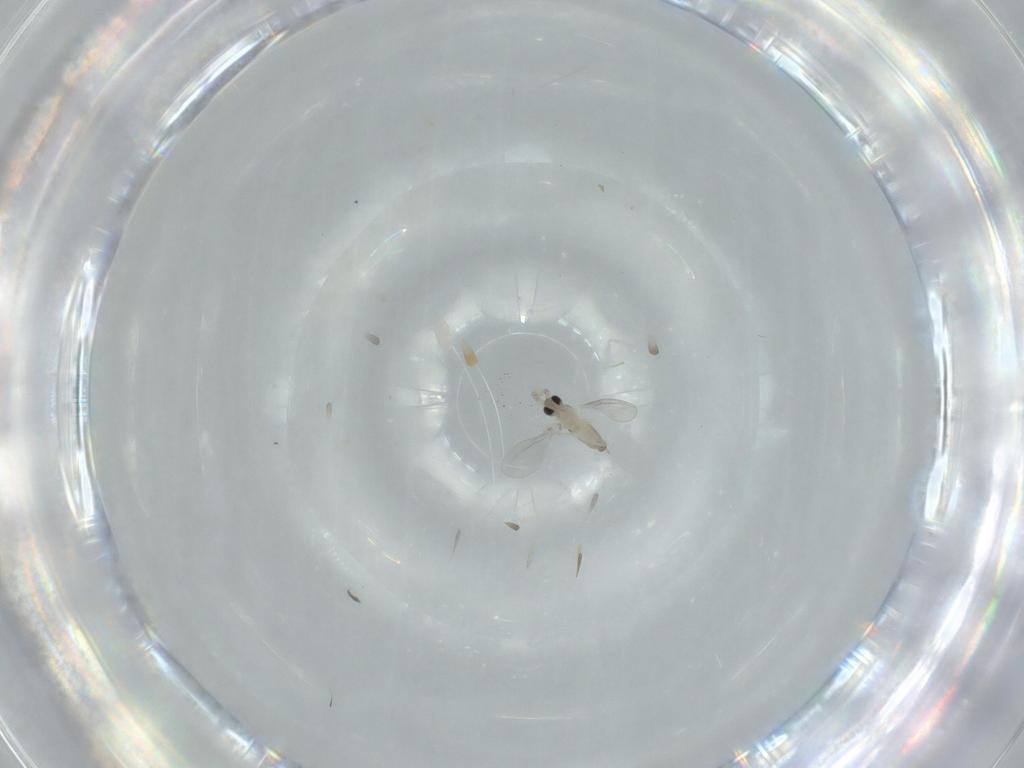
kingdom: Animalia
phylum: Arthropoda
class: Insecta
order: Diptera
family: Cecidomyiidae
